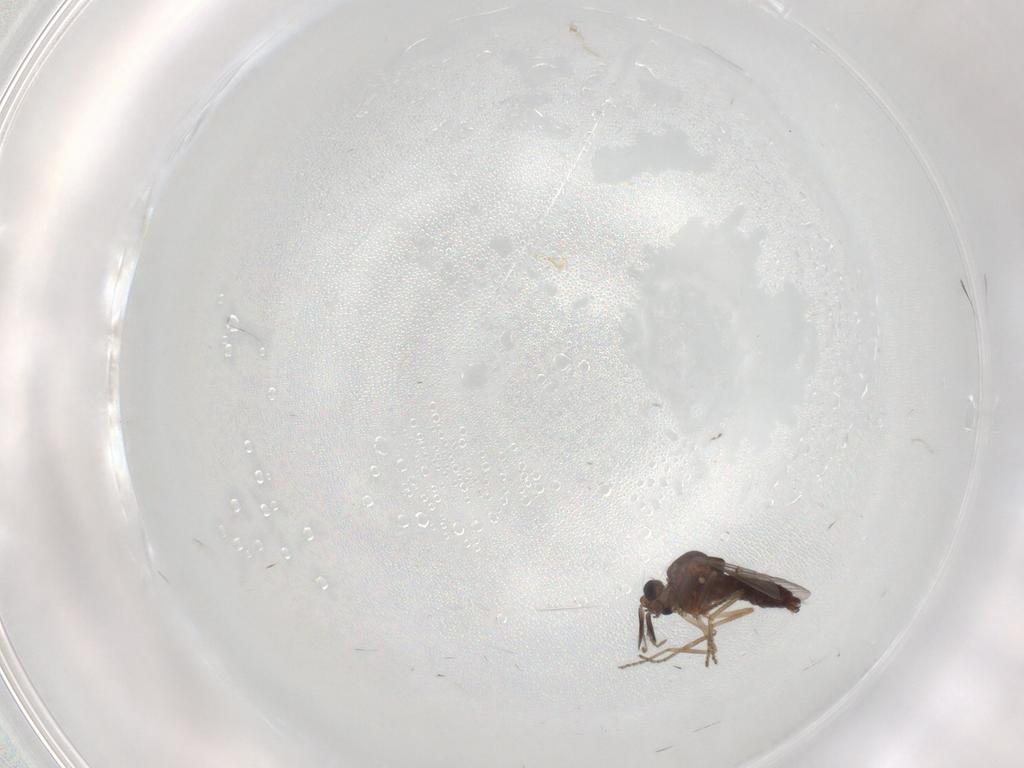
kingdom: Animalia
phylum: Arthropoda
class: Insecta
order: Diptera
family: Ceratopogonidae
